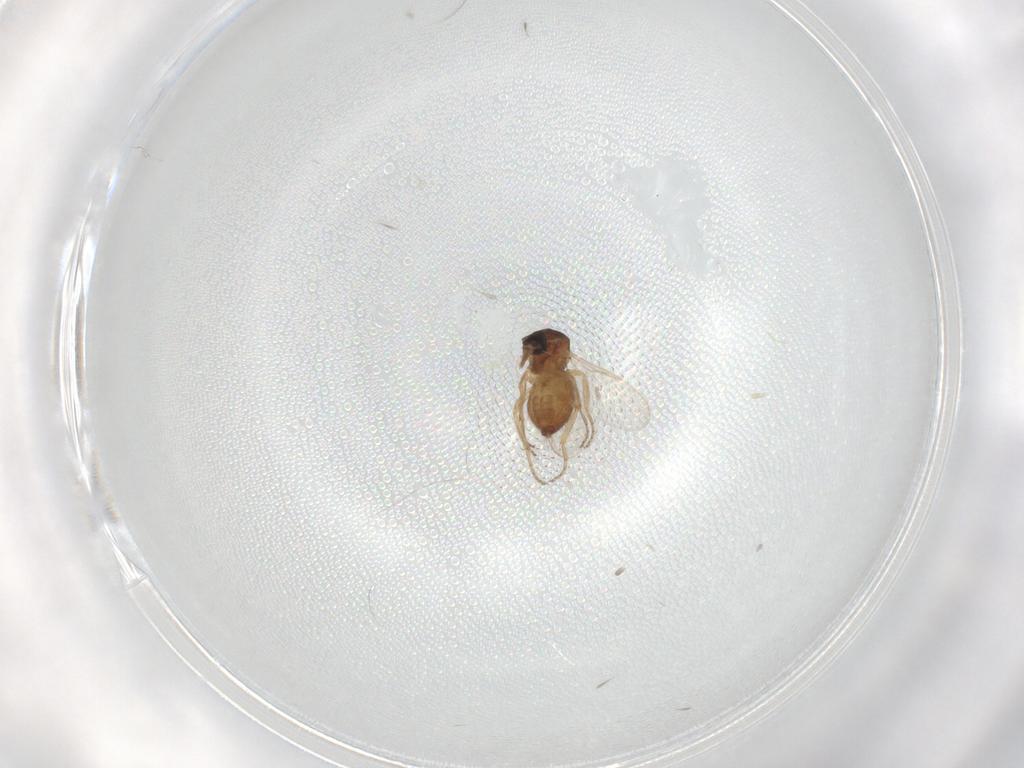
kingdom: Animalia
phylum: Arthropoda
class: Insecta
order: Diptera
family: Ceratopogonidae
